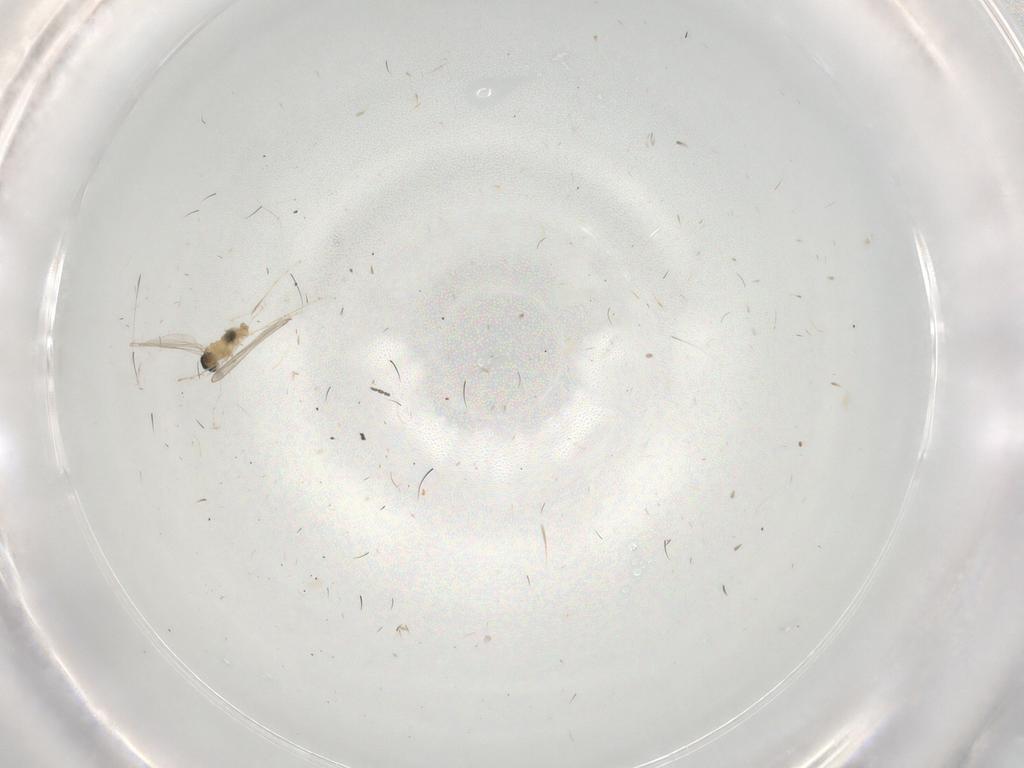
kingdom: Animalia
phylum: Arthropoda
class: Insecta
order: Diptera
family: Cecidomyiidae
